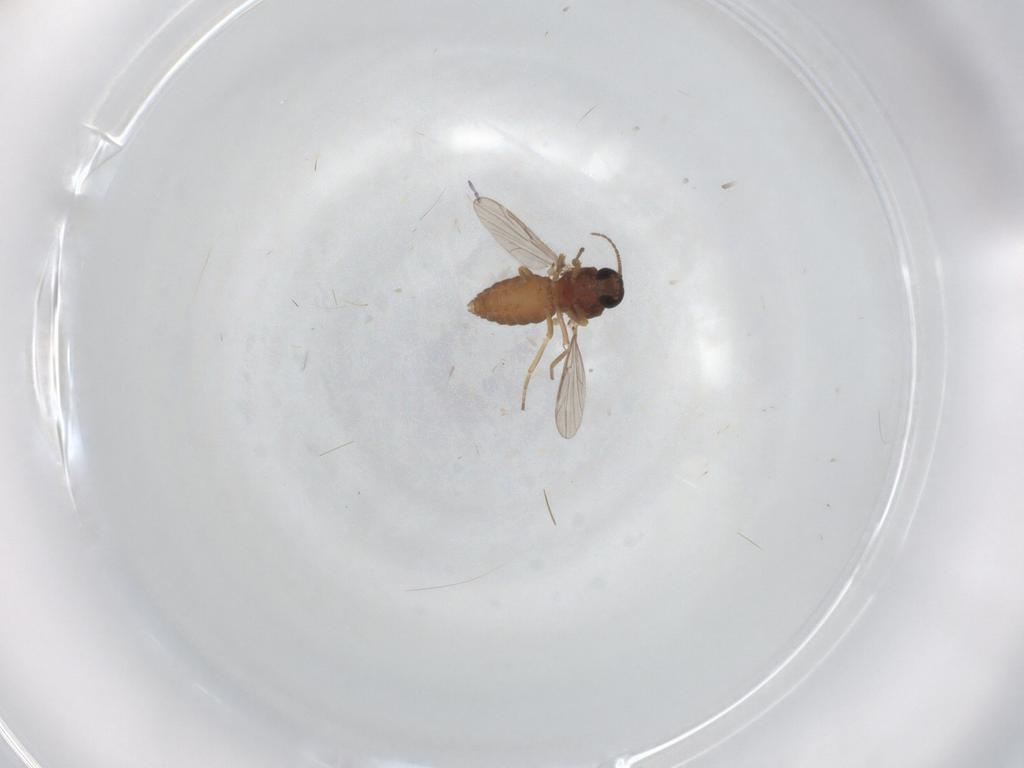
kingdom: Animalia
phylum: Arthropoda
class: Insecta
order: Diptera
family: Psychodidae
